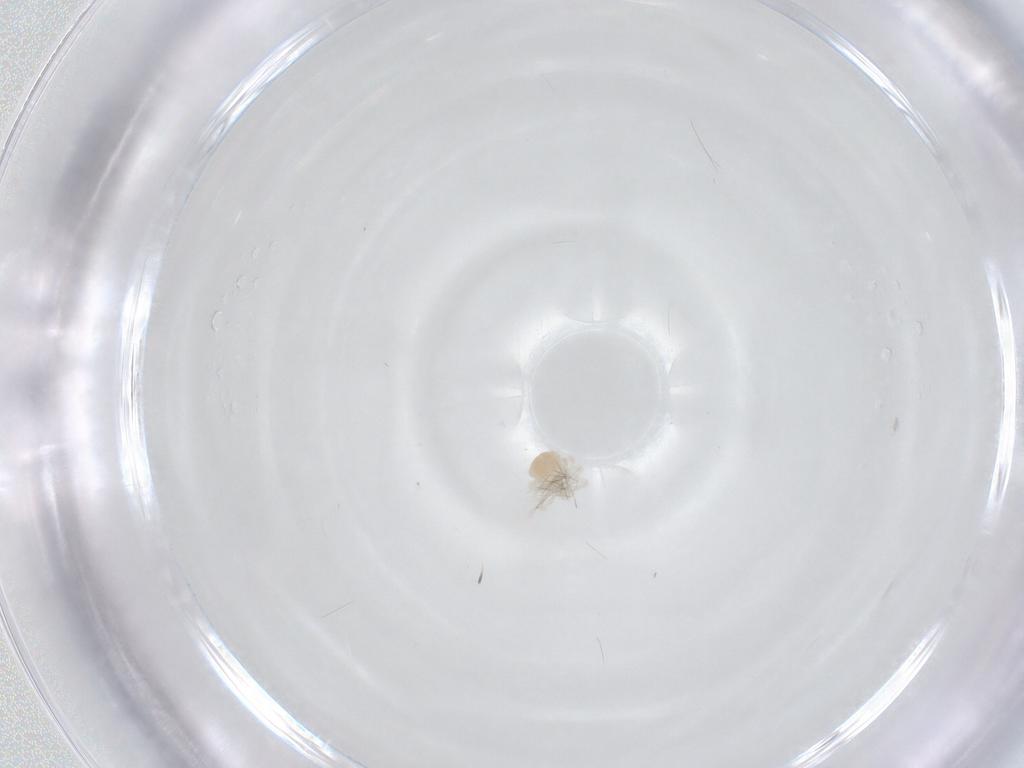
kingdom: Animalia
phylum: Arthropoda
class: Arachnida
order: Trombidiformes
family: Anystidae
